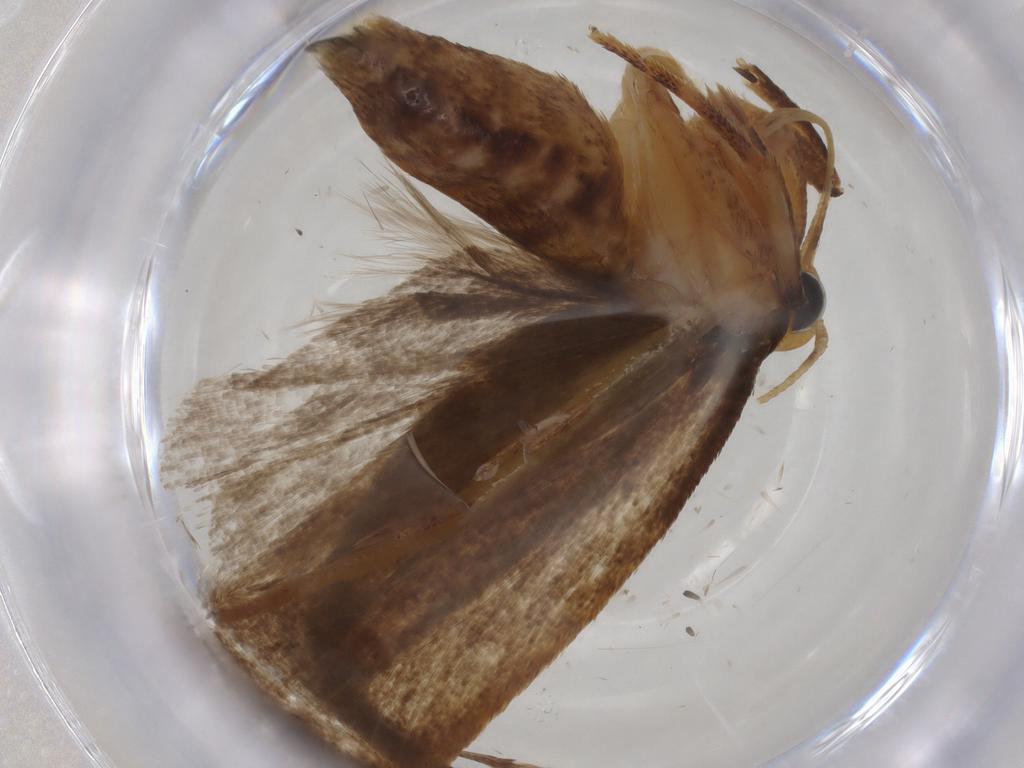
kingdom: Animalia
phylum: Arthropoda
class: Insecta
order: Lepidoptera
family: Gelechiidae
